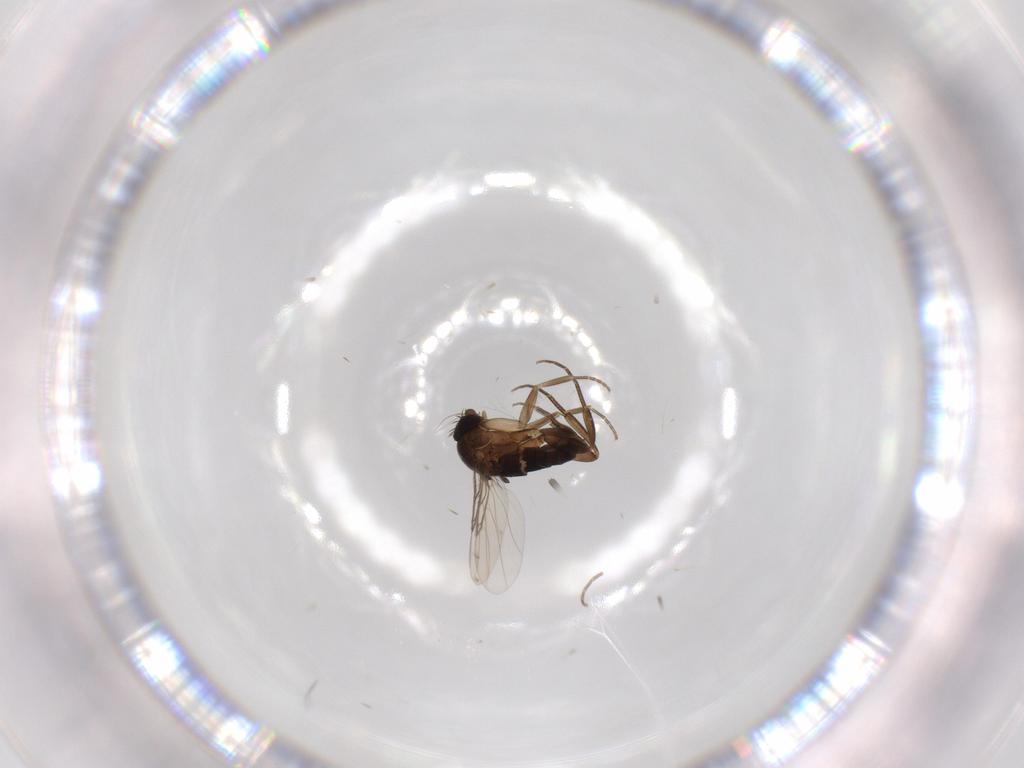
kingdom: Animalia
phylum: Arthropoda
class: Insecta
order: Diptera
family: Phoridae
